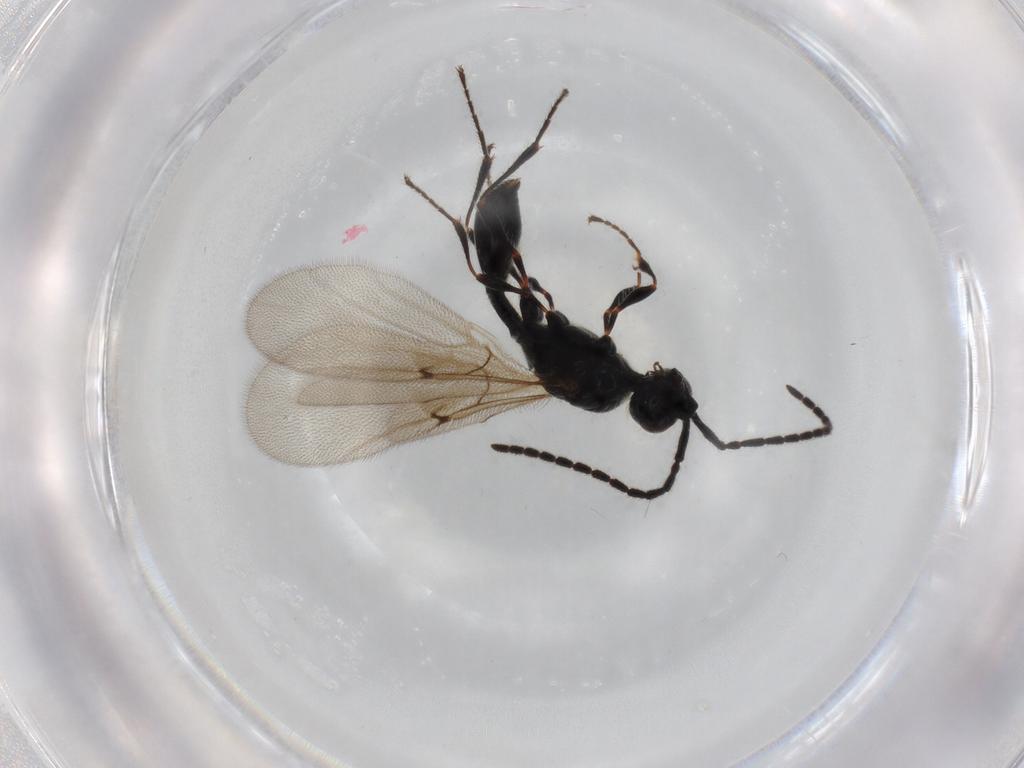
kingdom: Animalia
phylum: Arthropoda
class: Insecta
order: Hymenoptera
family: Diapriidae
